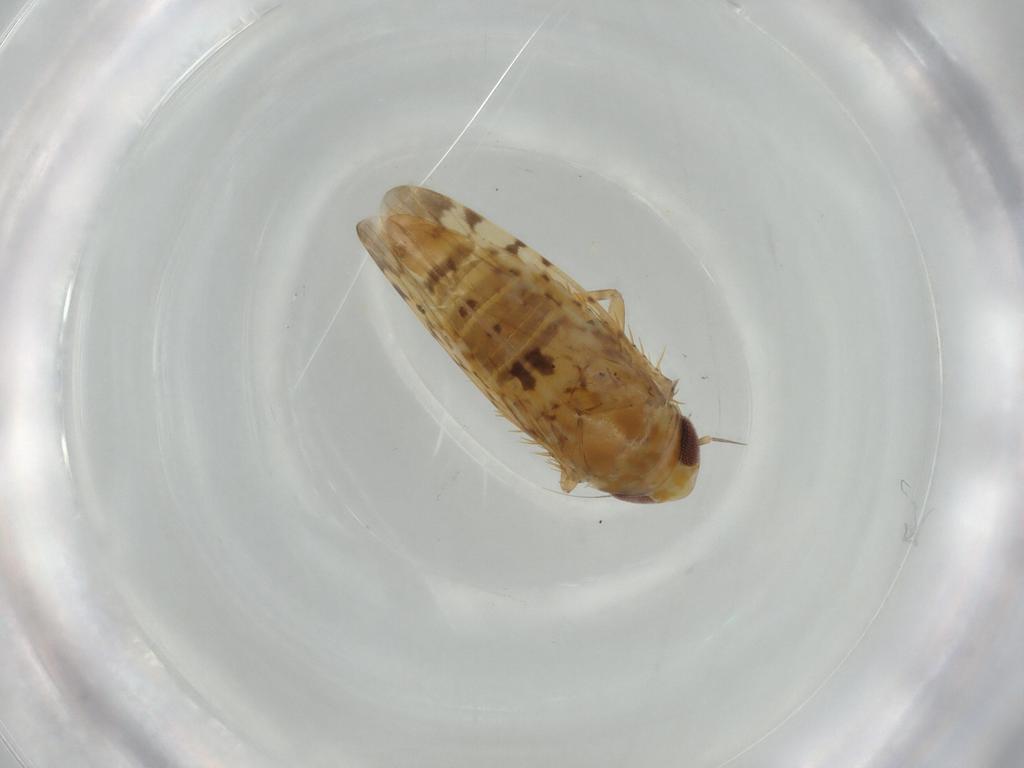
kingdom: Animalia
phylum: Arthropoda
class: Insecta
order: Hemiptera
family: Cicadellidae
